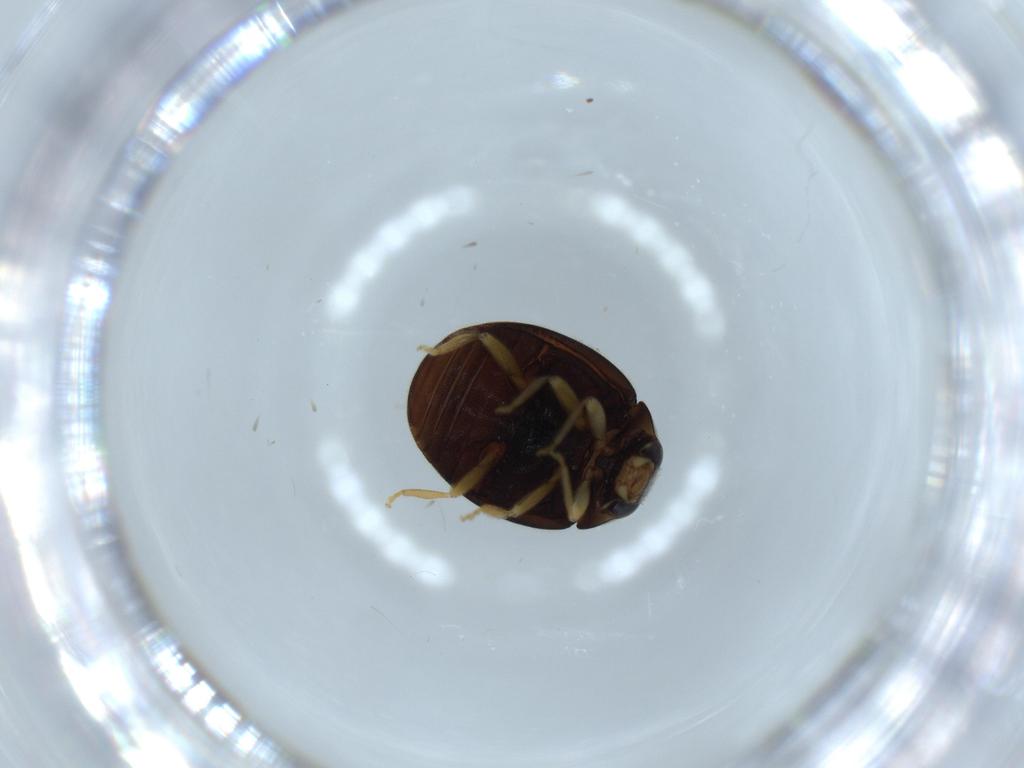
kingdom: Animalia
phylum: Arthropoda
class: Insecta
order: Coleoptera
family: Coccinellidae
